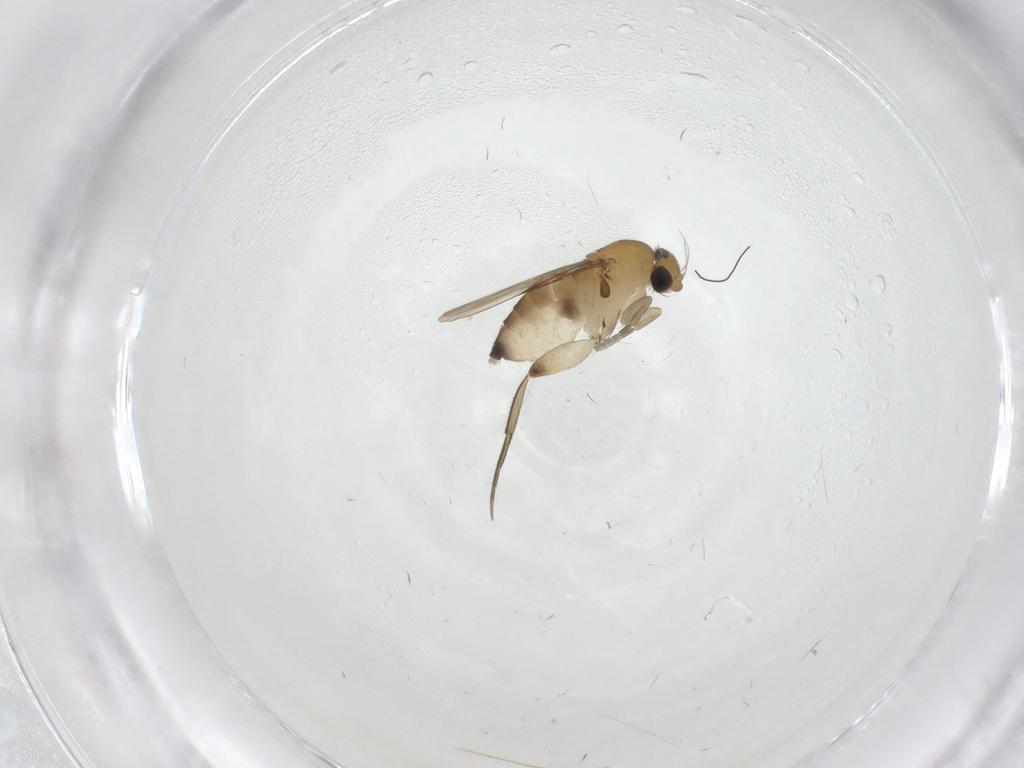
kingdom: Animalia
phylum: Arthropoda
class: Insecta
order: Diptera
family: Phoridae
